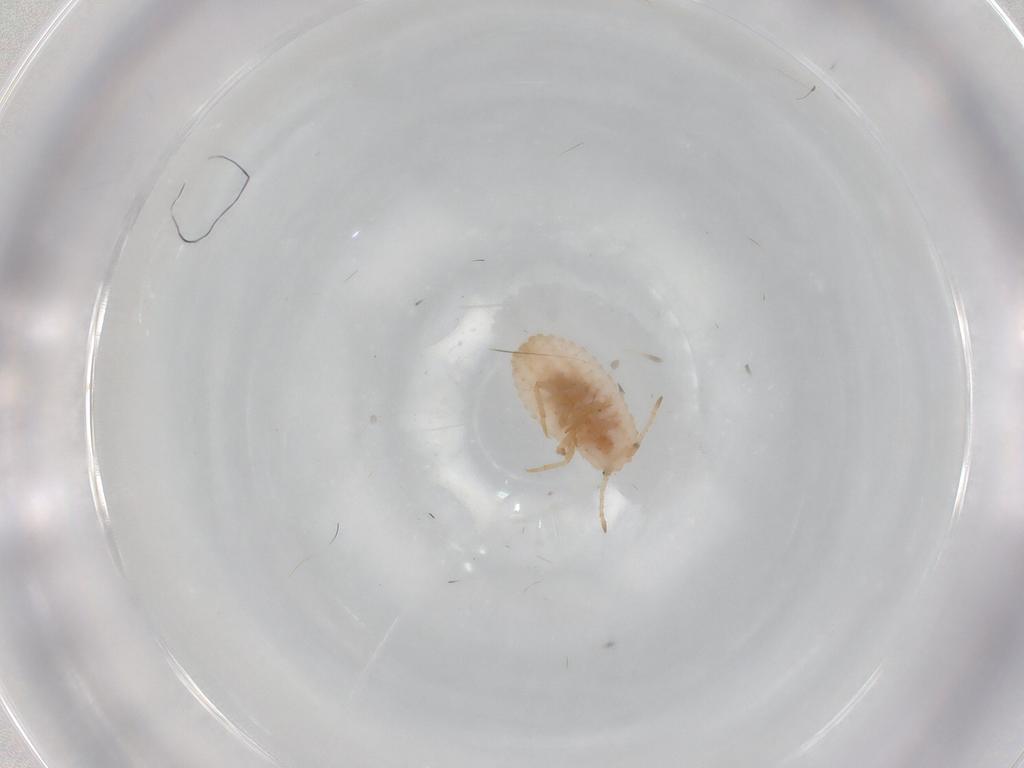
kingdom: Animalia
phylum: Arthropoda
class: Insecta
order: Hemiptera
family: Coccoidea_incertae_sedis
